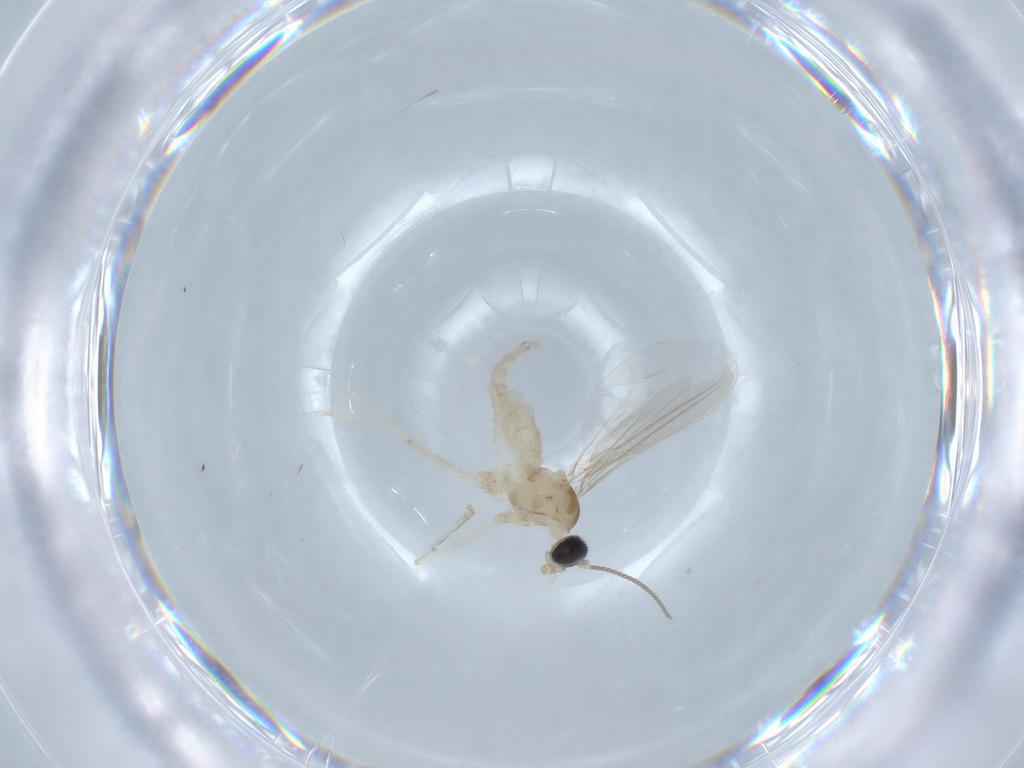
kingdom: Animalia
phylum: Arthropoda
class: Insecta
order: Diptera
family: Cecidomyiidae
